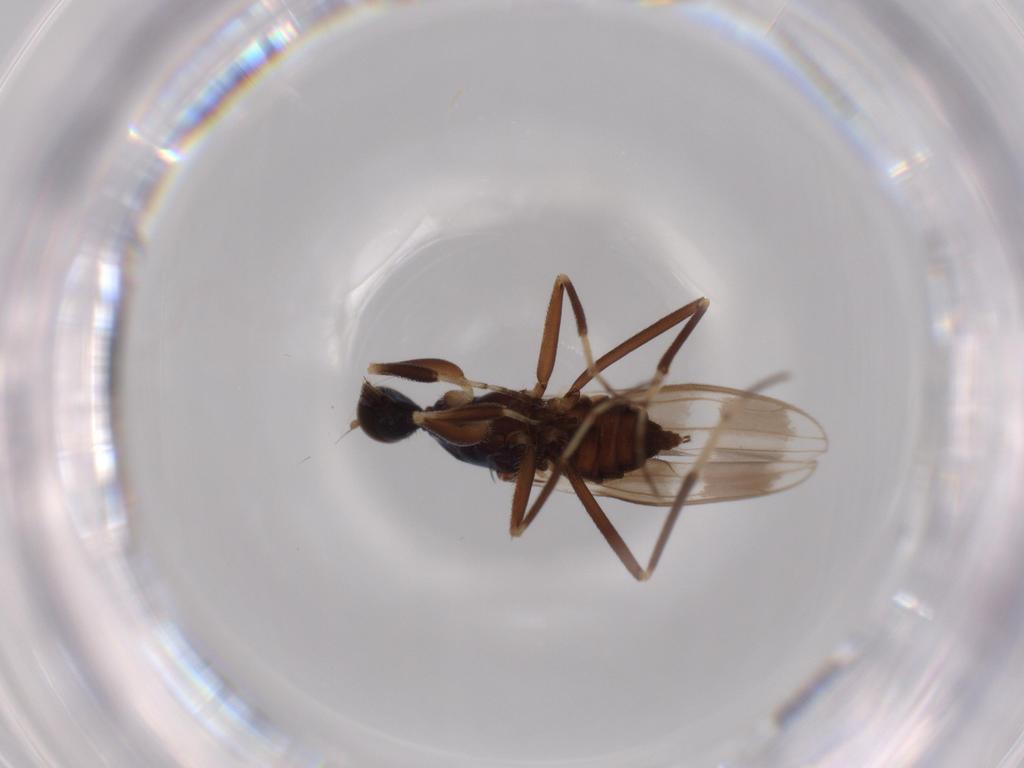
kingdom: Animalia
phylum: Arthropoda
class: Insecta
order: Diptera
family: Hybotidae
